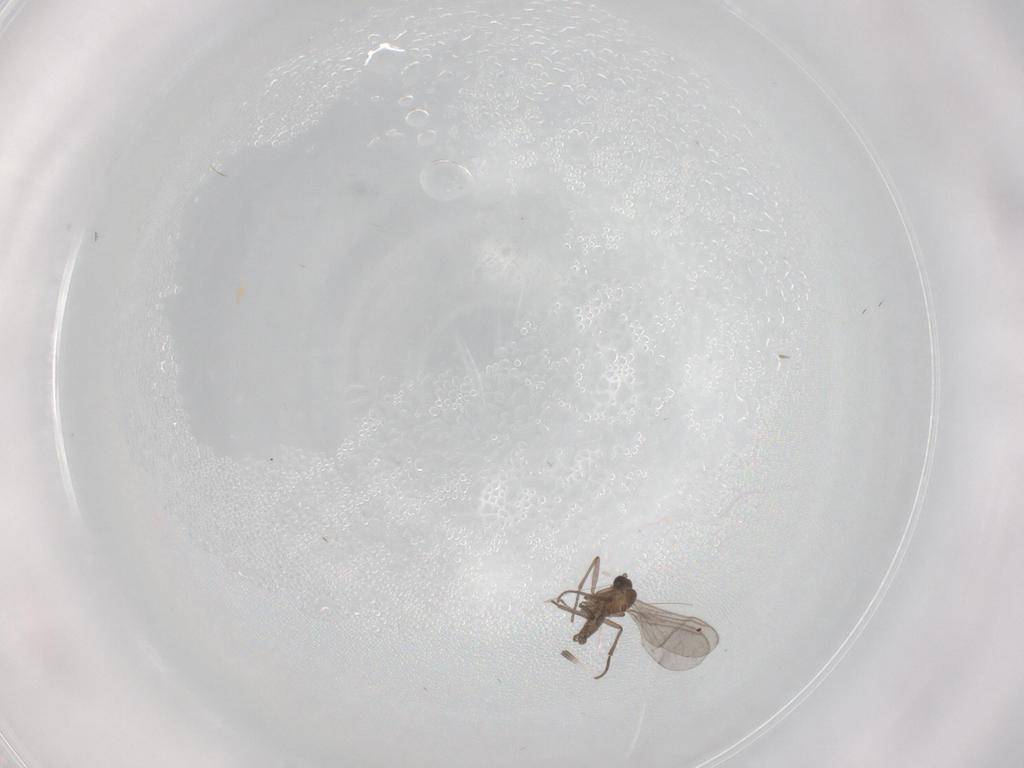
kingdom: Animalia
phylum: Arthropoda
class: Insecta
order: Diptera
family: Sciaridae
